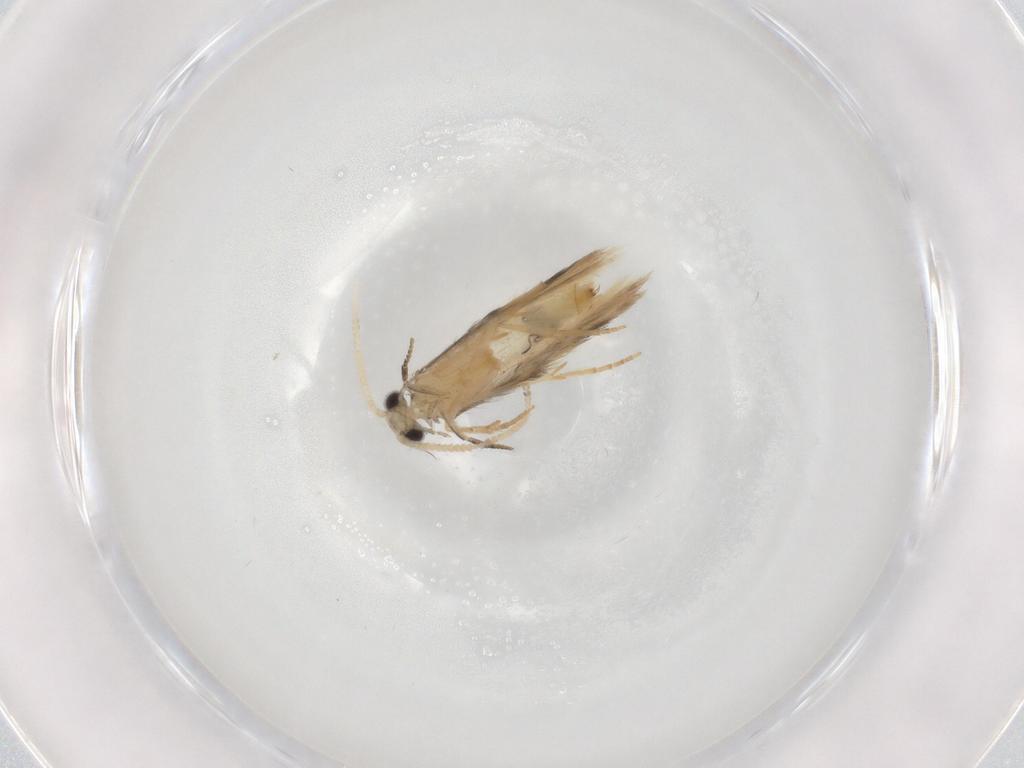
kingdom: Animalia
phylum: Arthropoda
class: Insecta
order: Trichoptera
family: Hydroptilidae
